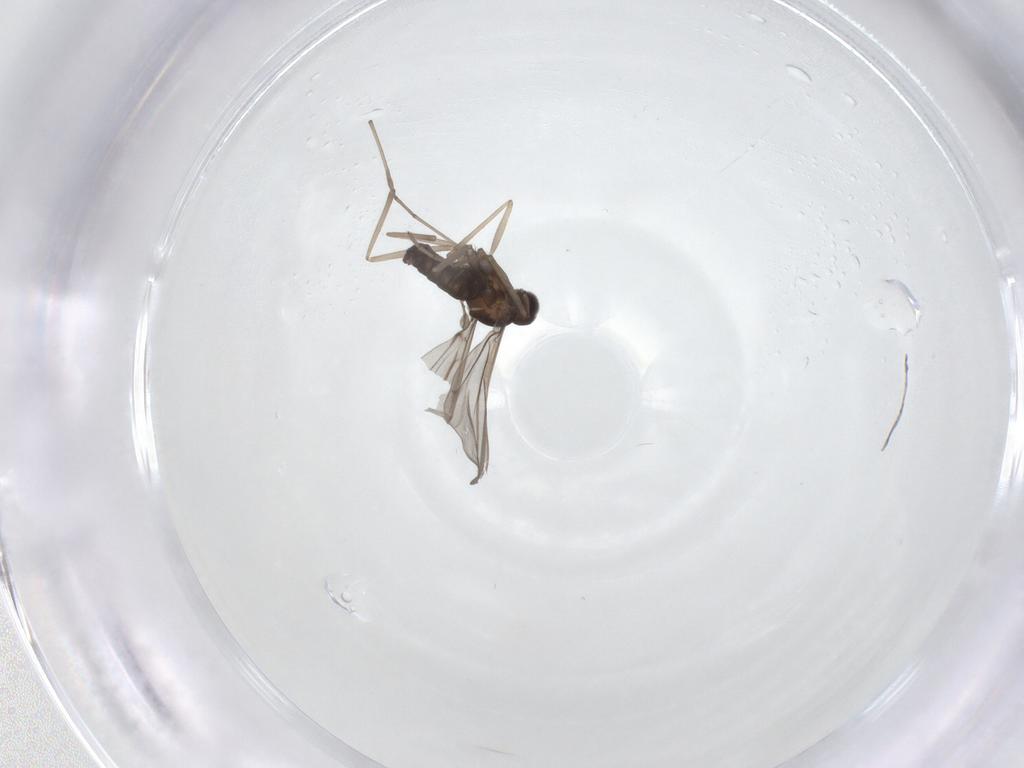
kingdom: Animalia
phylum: Arthropoda
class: Insecta
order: Diptera
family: Cecidomyiidae
